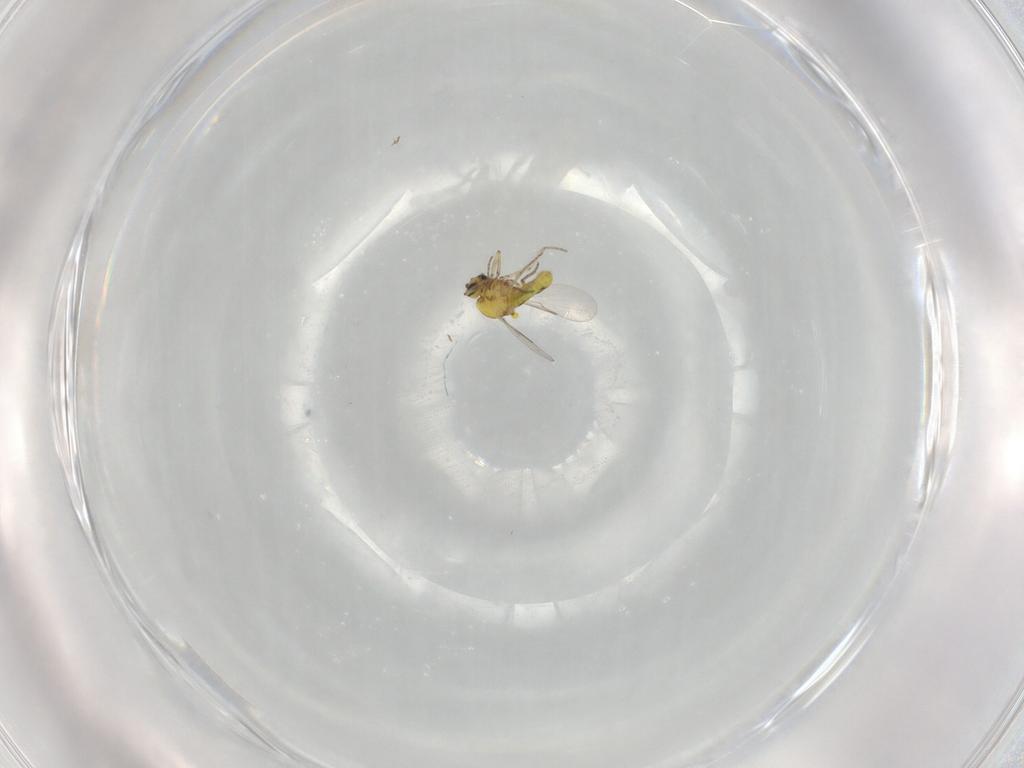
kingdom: Animalia
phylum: Arthropoda
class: Insecta
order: Diptera
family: Ceratopogonidae
